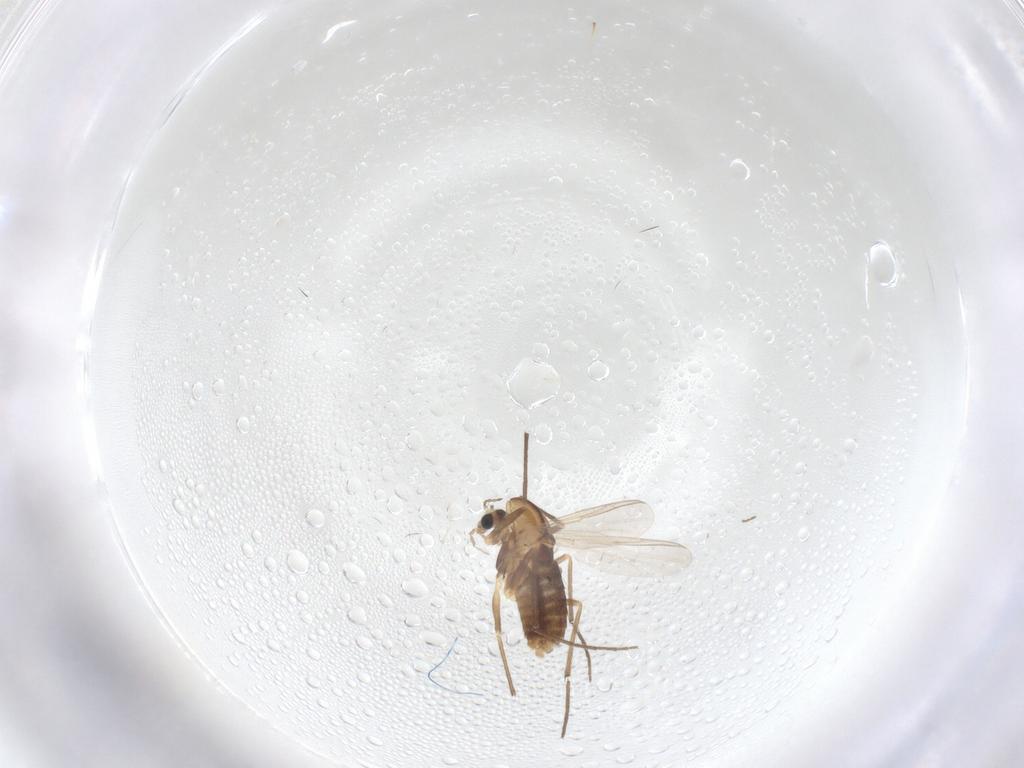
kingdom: Animalia
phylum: Arthropoda
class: Insecta
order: Diptera
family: Chironomidae
